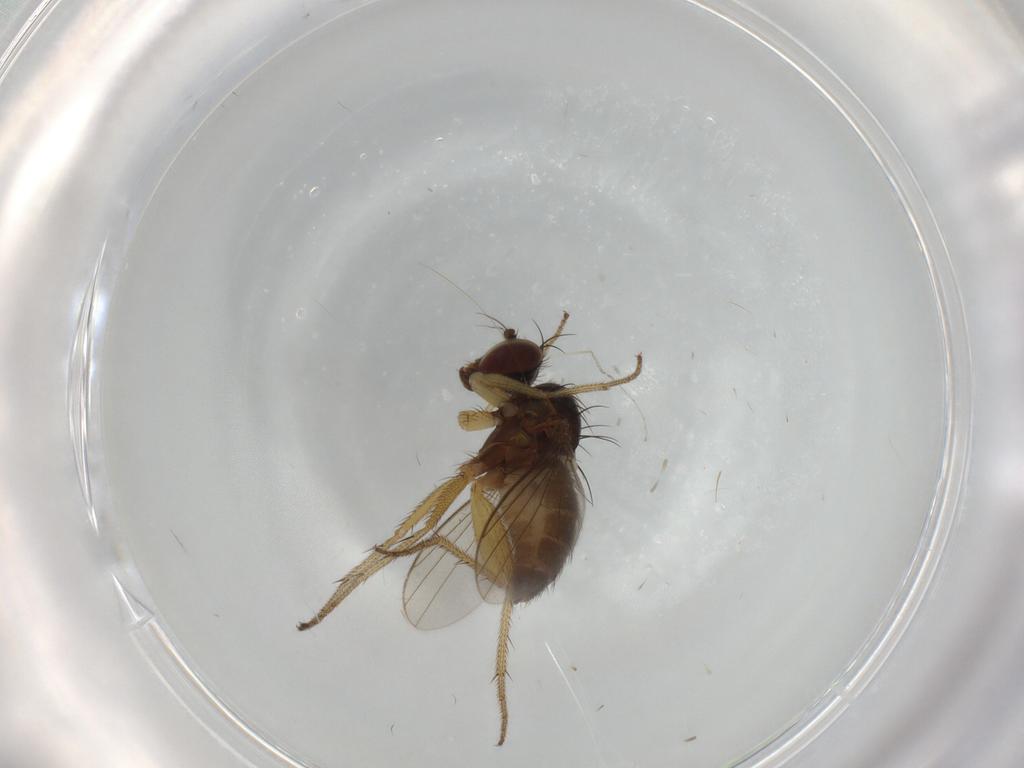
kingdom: Animalia
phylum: Arthropoda
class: Insecta
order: Diptera
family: Dolichopodidae
